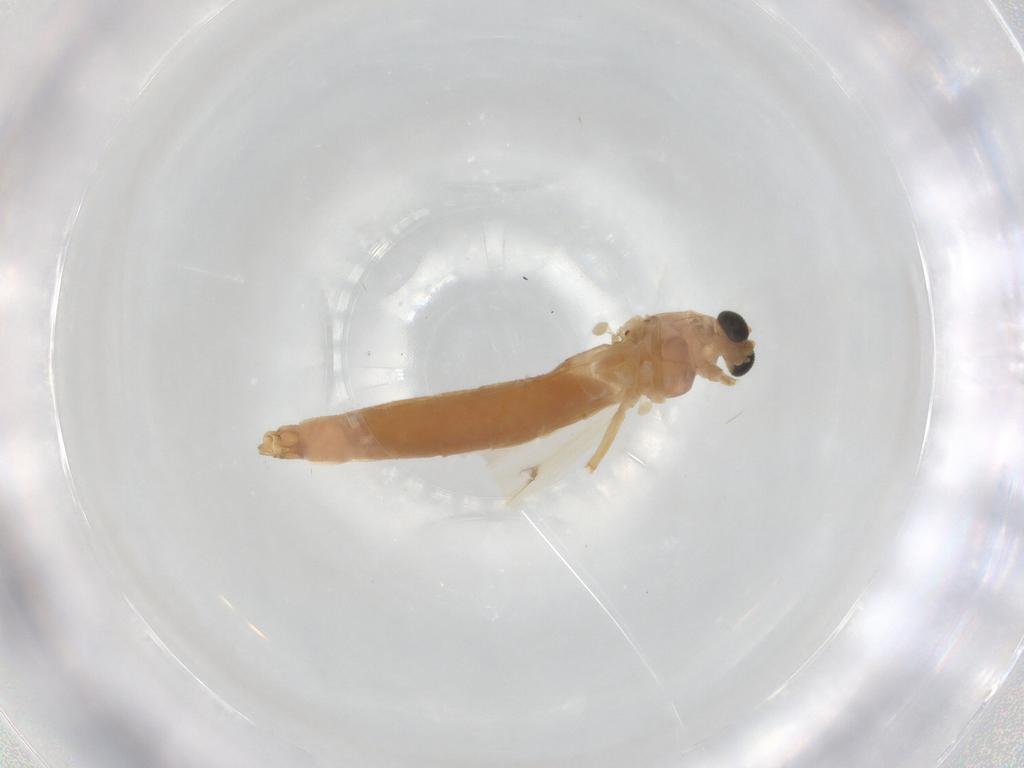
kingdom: Animalia
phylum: Arthropoda
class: Insecta
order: Diptera
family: Chironomidae
